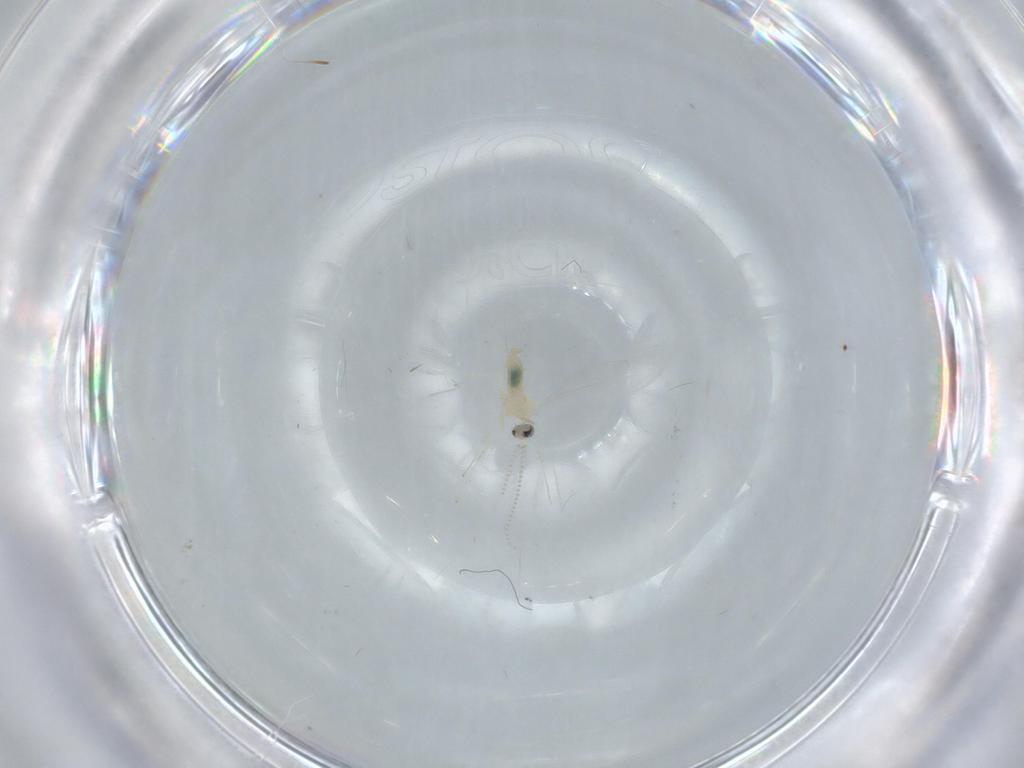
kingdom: Animalia
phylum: Arthropoda
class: Insecta
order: Diptera
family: Cecidomyiidae
